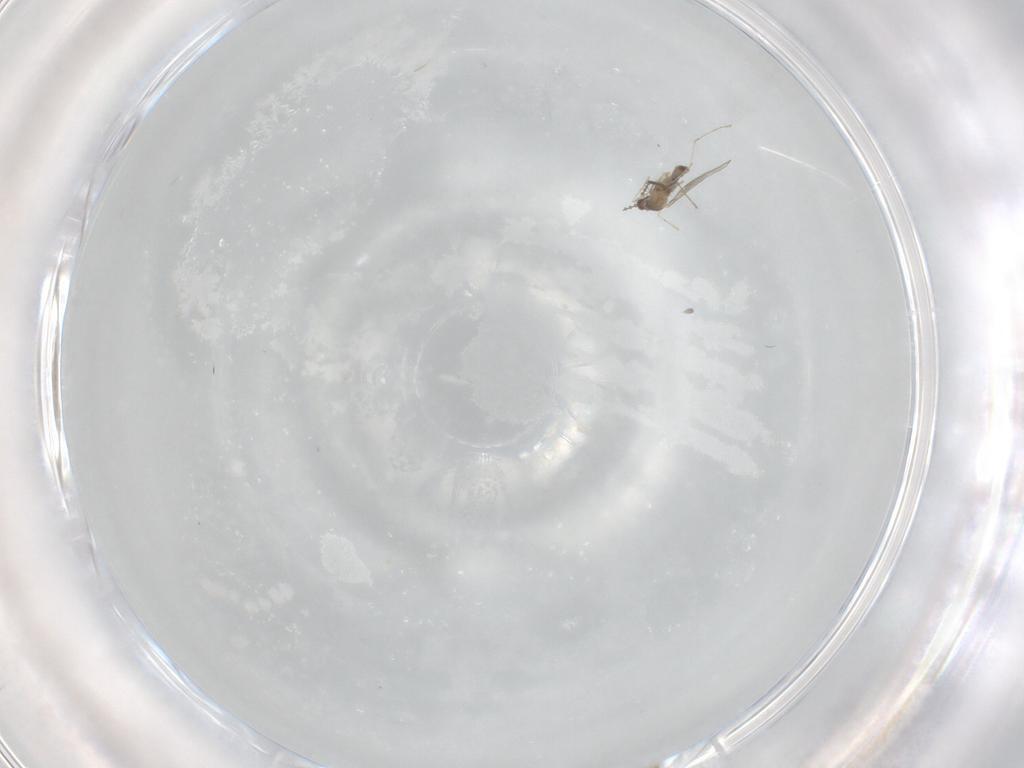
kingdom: Animalia
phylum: Arthropoda
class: Insecta
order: Diptera
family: Cecidomyiidae
